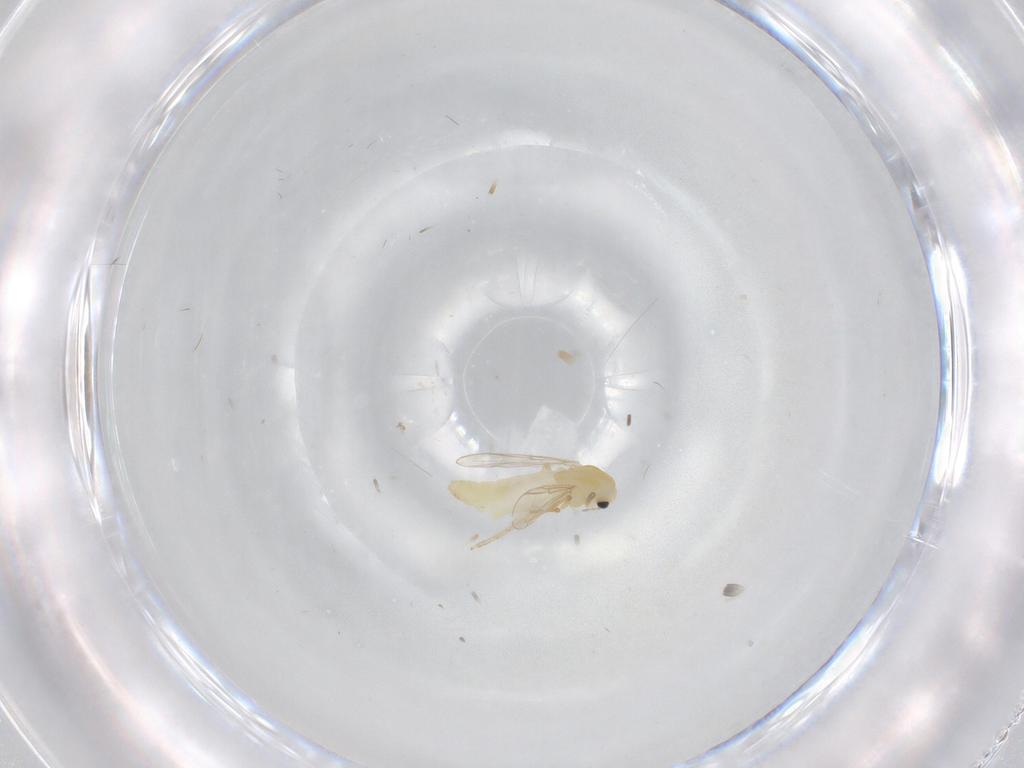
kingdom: Animalia
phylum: Arthropoda
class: Insecta
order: Diptera
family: Chironomidae
